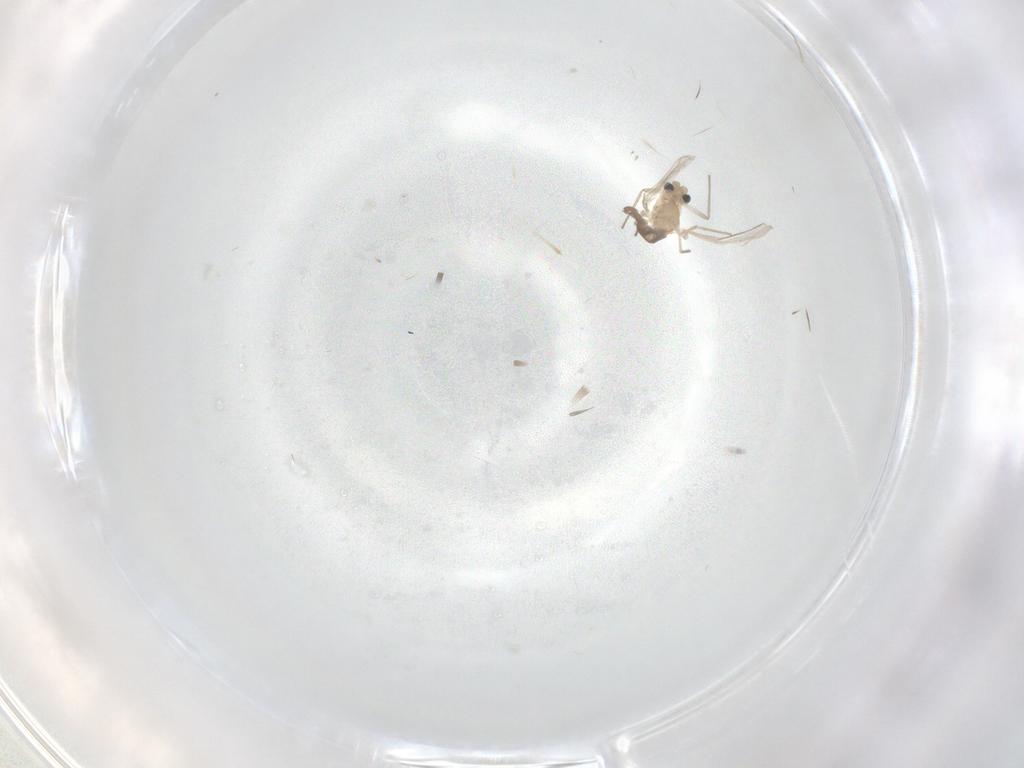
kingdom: Animalia
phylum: Arthropoda
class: Insecta
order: Diptera
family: Chironomidae
